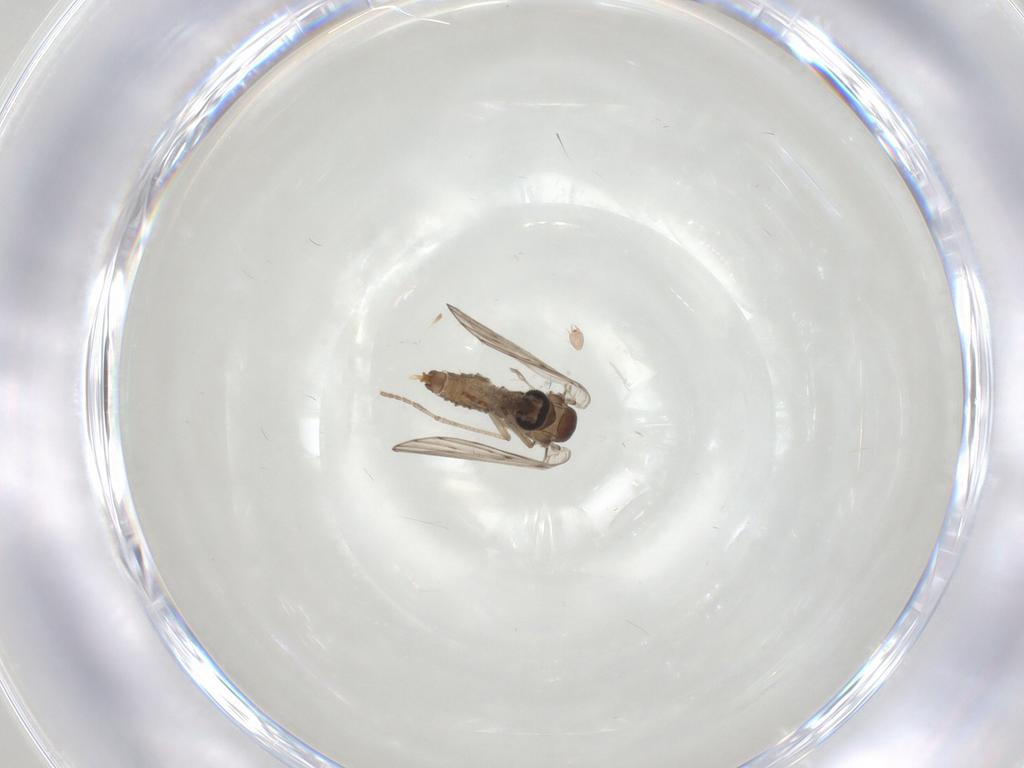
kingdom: Animalia
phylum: Arthropoda
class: Insecta
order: Diptera
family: Psychodidae
